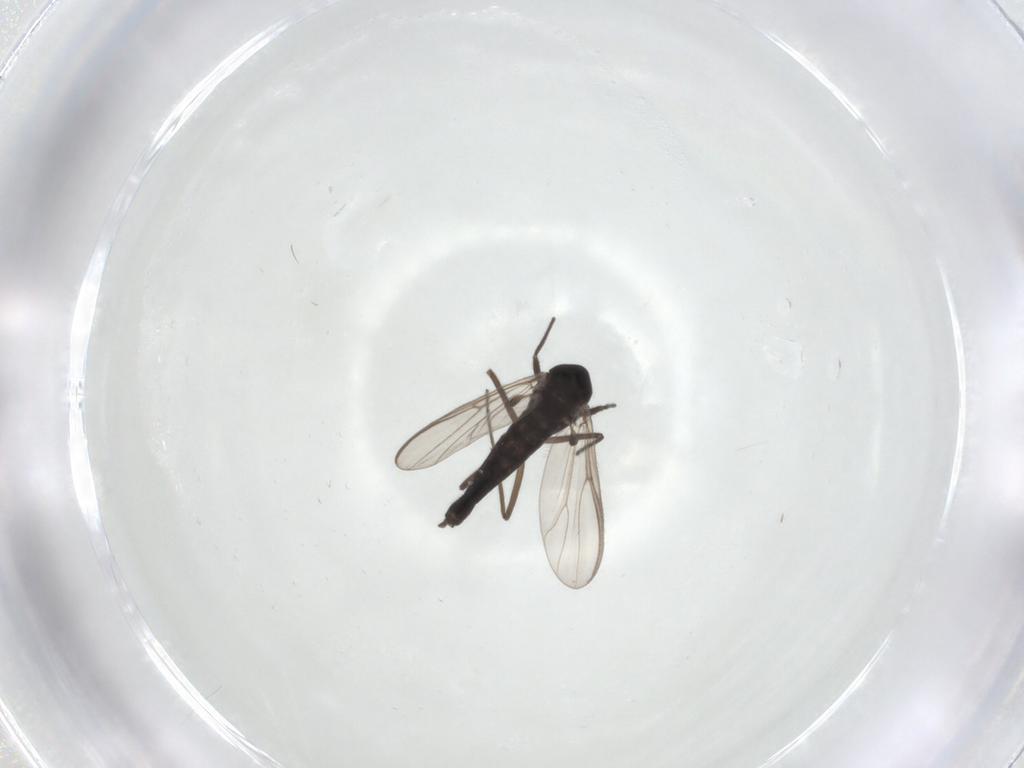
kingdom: Animalia
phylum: Arthropoda
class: Insecta
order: Diptera
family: Chironomidae
